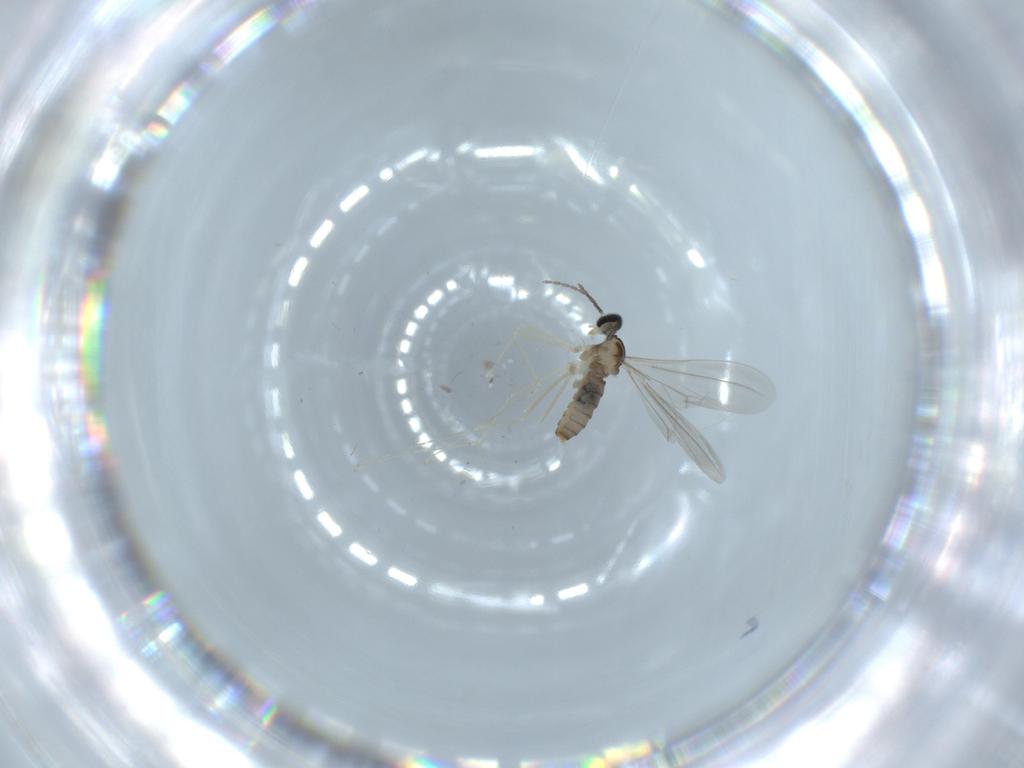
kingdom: Animalia
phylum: Arthropoda
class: Insecta
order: Diptera
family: Cecidomyiidae
